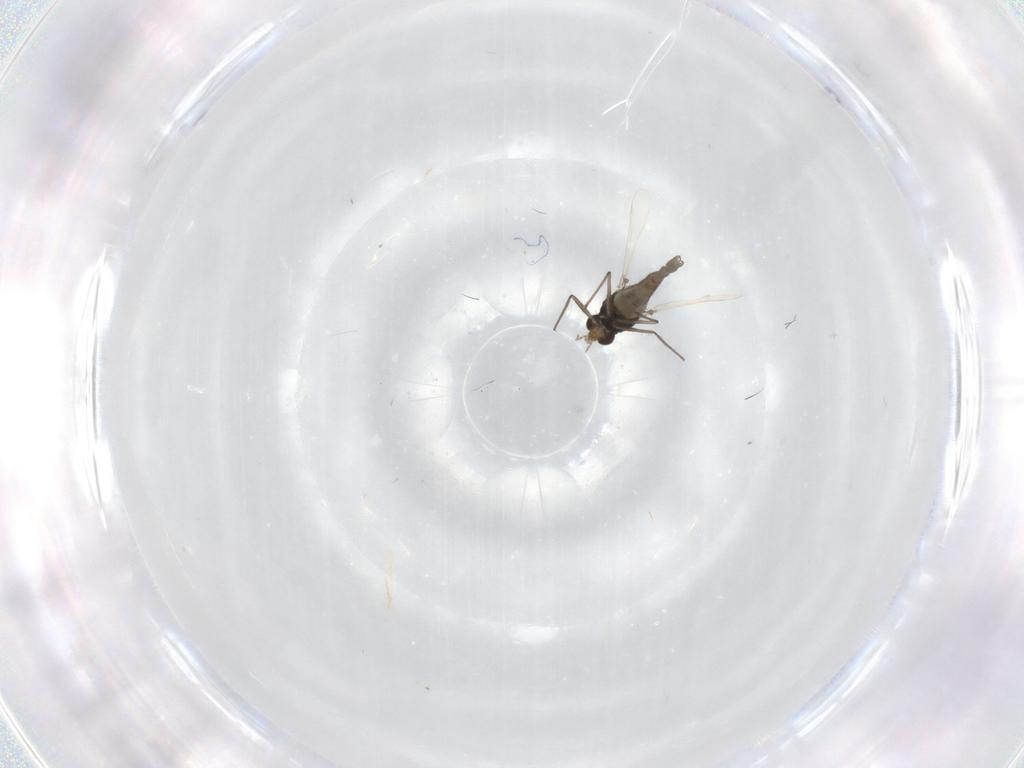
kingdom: Animalia
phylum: Arthropoda
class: Insecta
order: Diptera
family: Chironomidae
